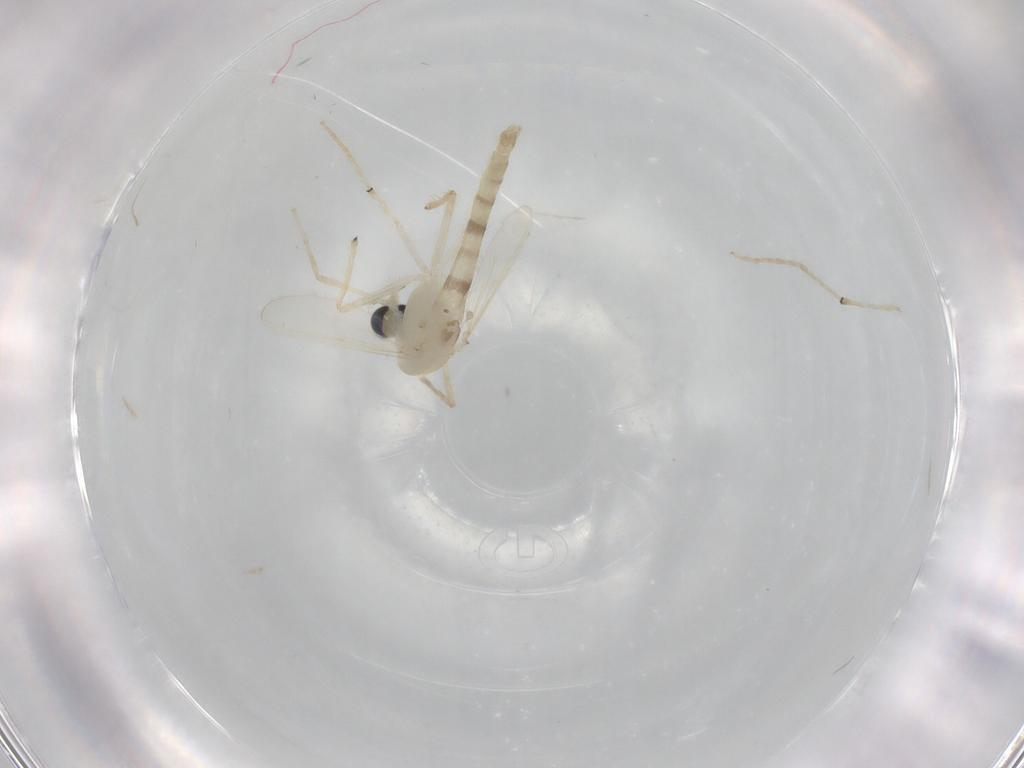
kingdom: Animalia
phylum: Arthropoda
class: Insecta
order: Diptera
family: Chironomidae
